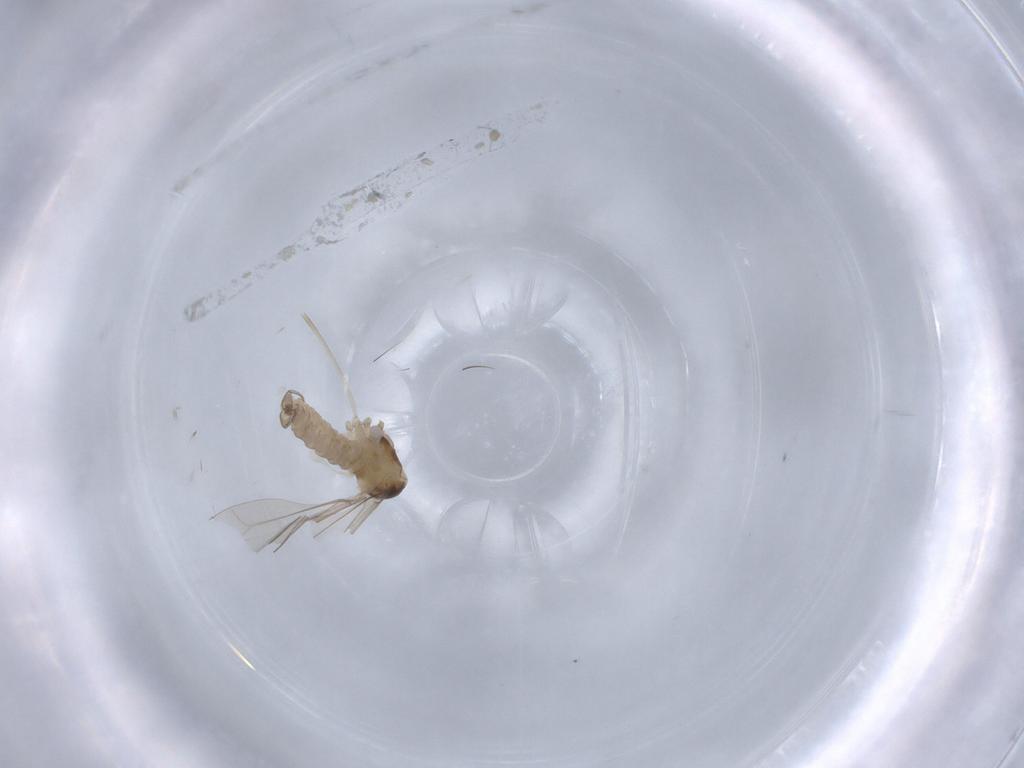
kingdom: Animalia
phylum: Arthropoda
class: Insecta
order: Diptera
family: Cecidomyiidae
